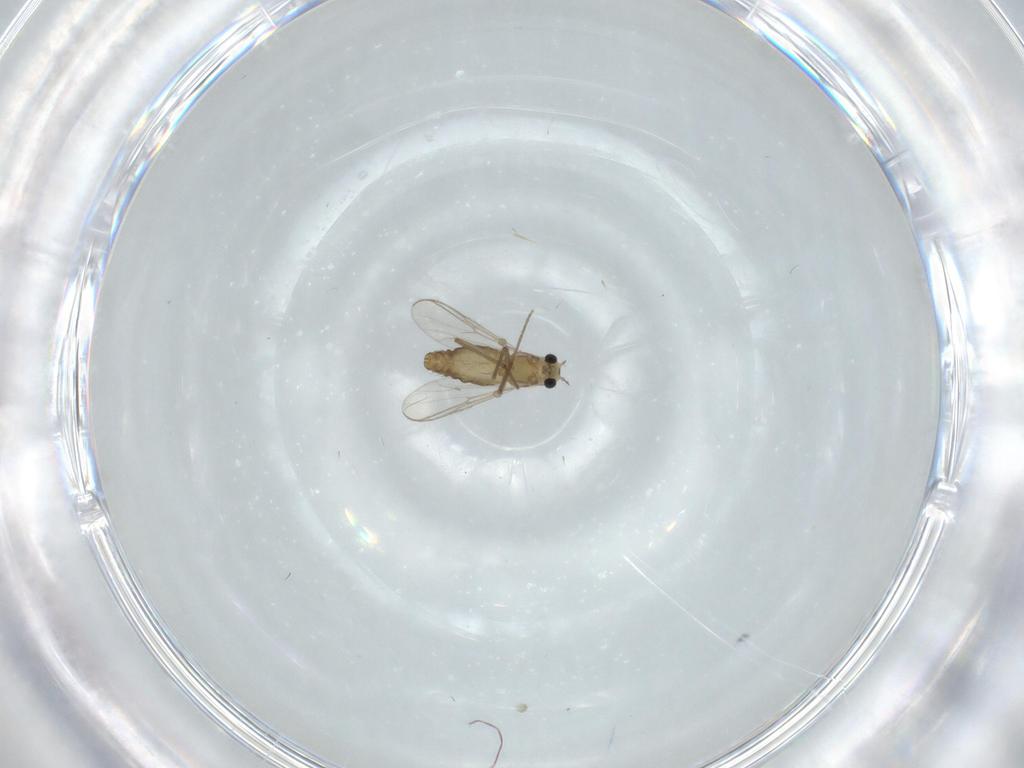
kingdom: Animalia
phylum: Arthropoda
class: Insecta
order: Diptera
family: Chironomidae
